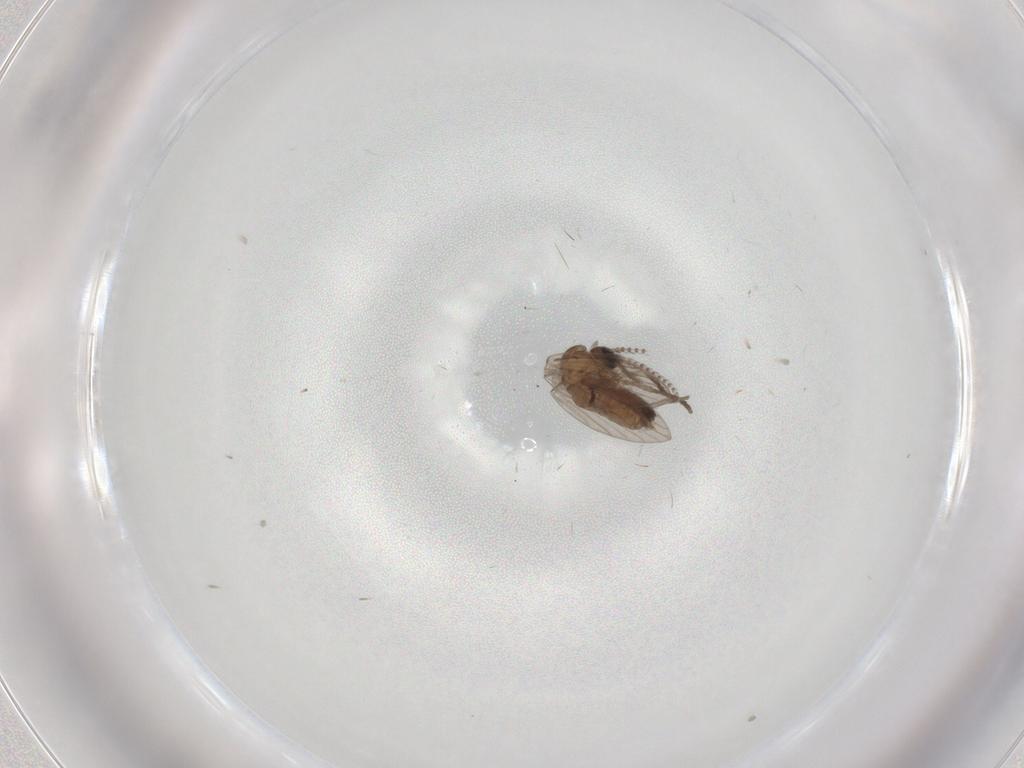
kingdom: Animalia
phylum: Arthropoda
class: Insecta
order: Diptera
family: Psychodidae
